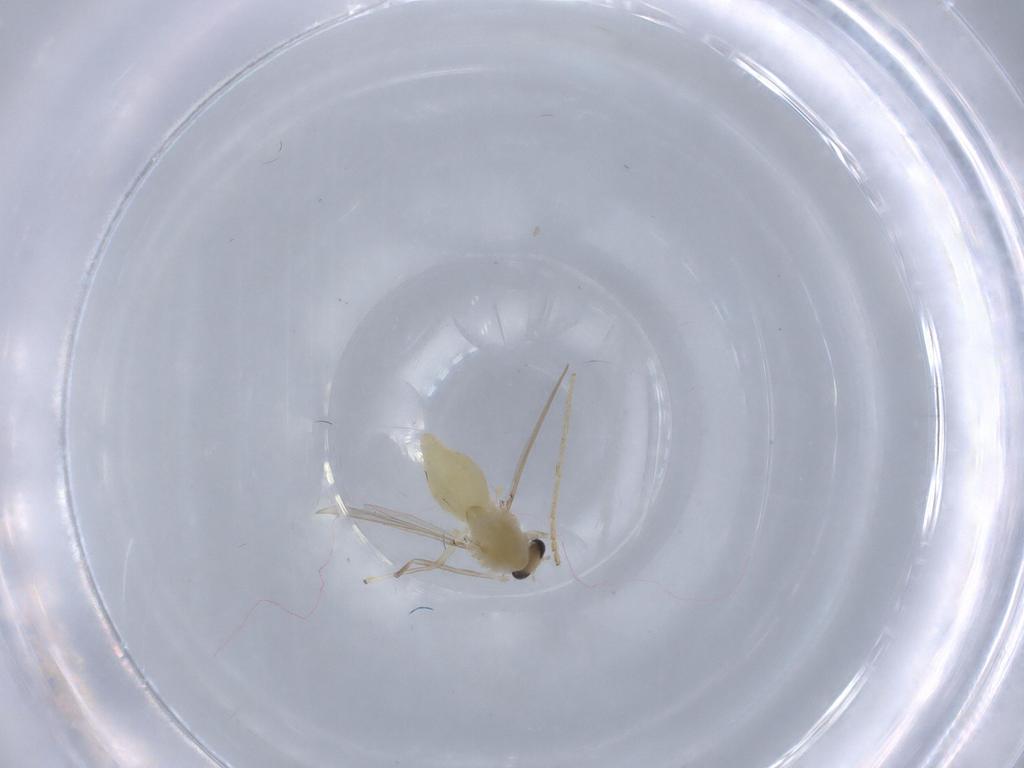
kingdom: Animalia
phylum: Arthropoda
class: Insecta
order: Diptera
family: Cecidomyiidae
